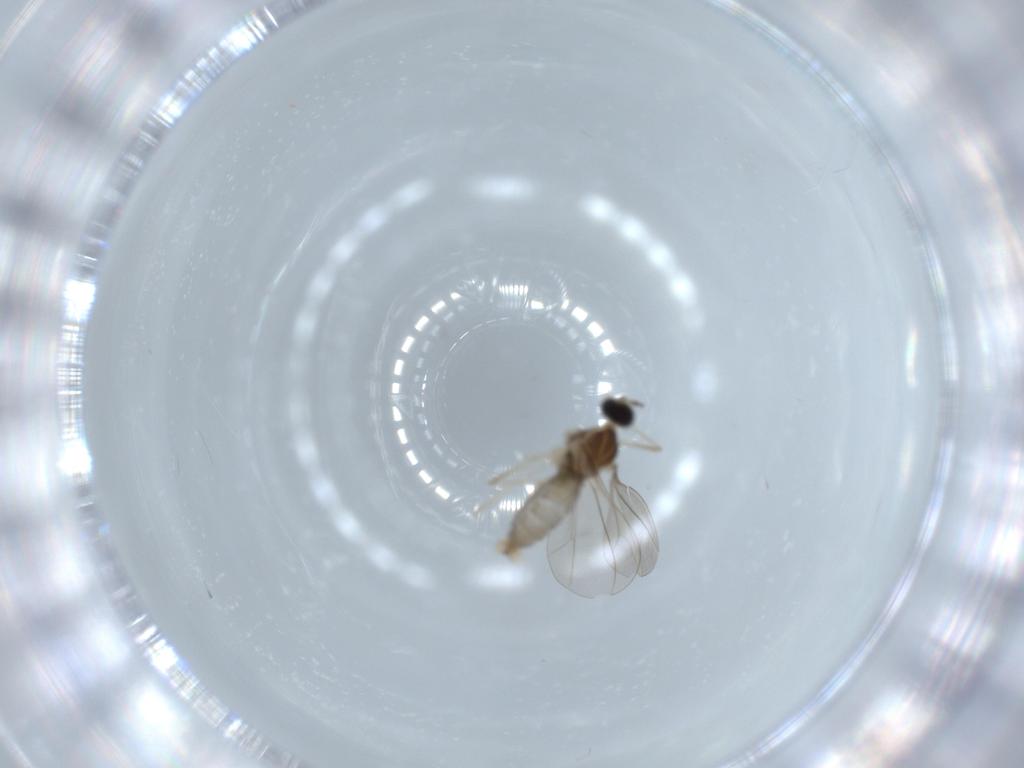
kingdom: Animalia
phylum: Arthropoda
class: Insecta
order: Diptera
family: Cecidomyiidae
